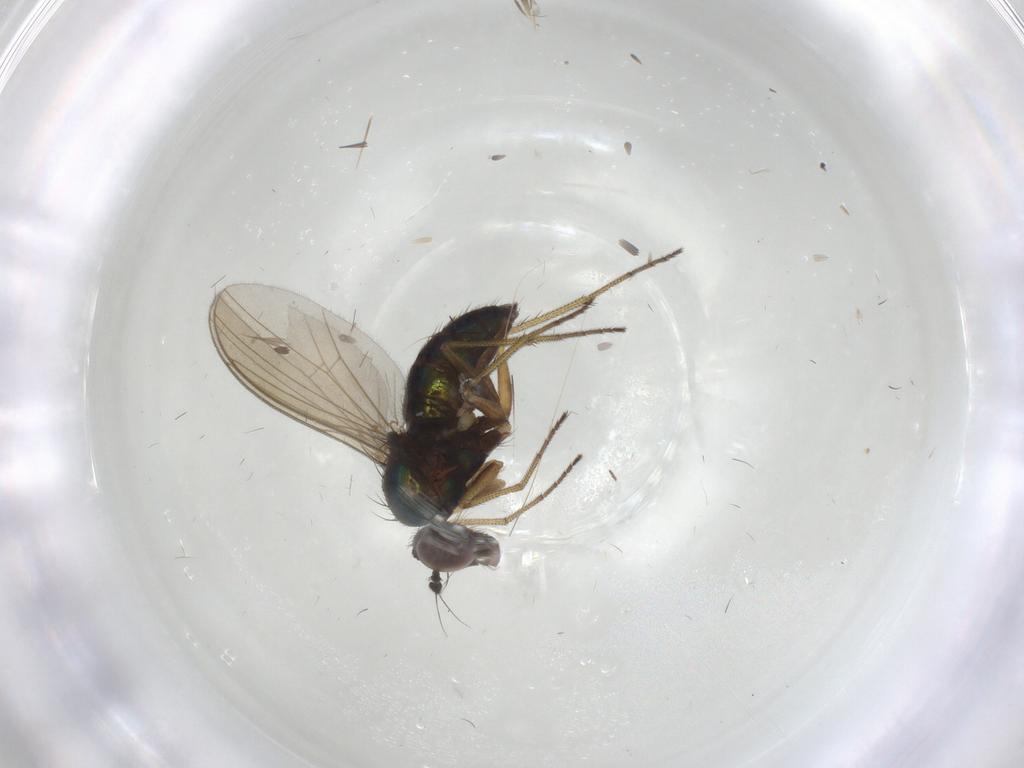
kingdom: Animalia
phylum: Arthropoda
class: Insecta
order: Diptera
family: Dolichopodidae
